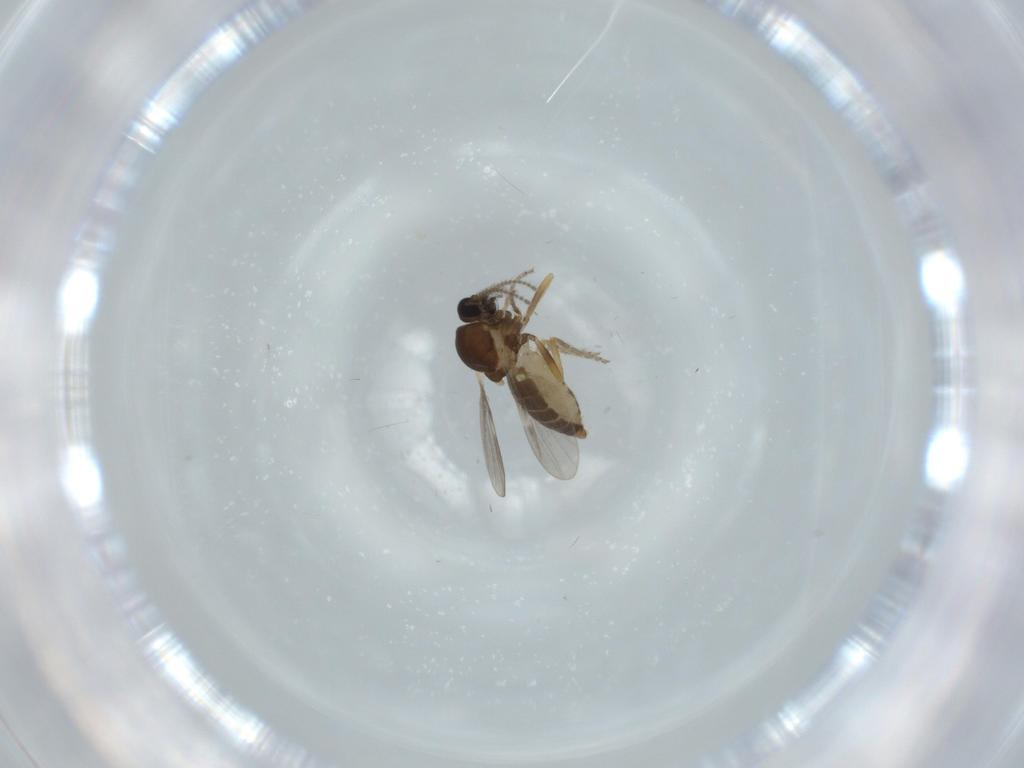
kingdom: Animalia
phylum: Arthropoda
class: Insecta
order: Diptera
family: Ceratopogonidae
